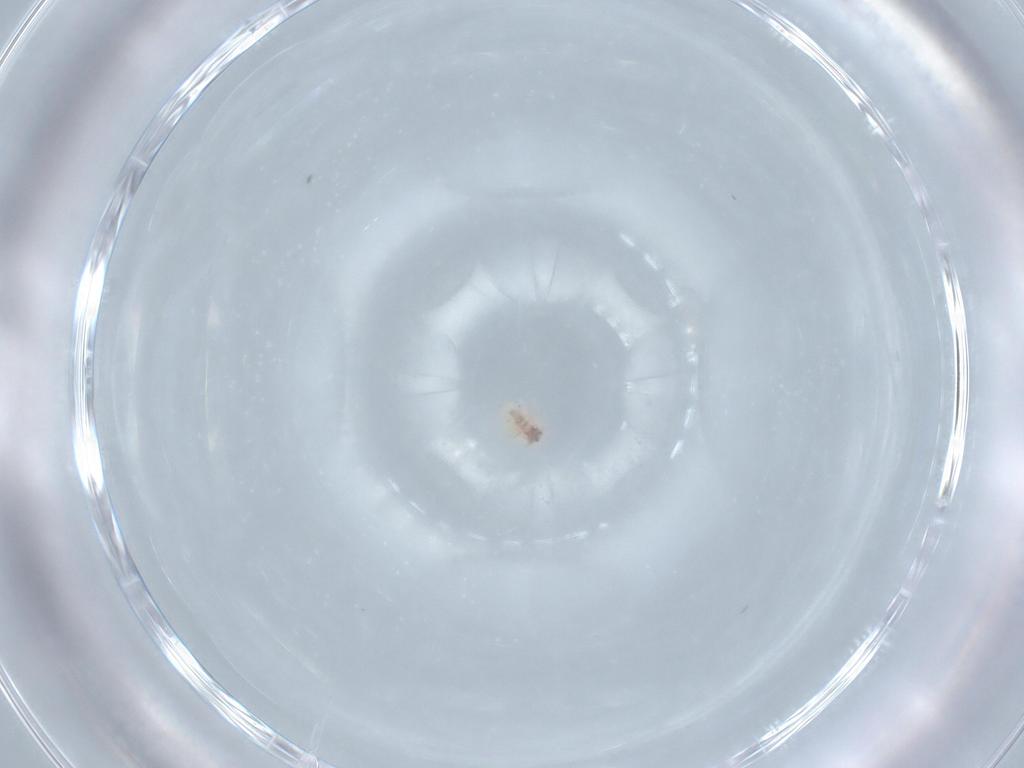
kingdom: Animalia
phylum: Arthropoda
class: Insecta
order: Neuroptera
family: Coniopterygidae
